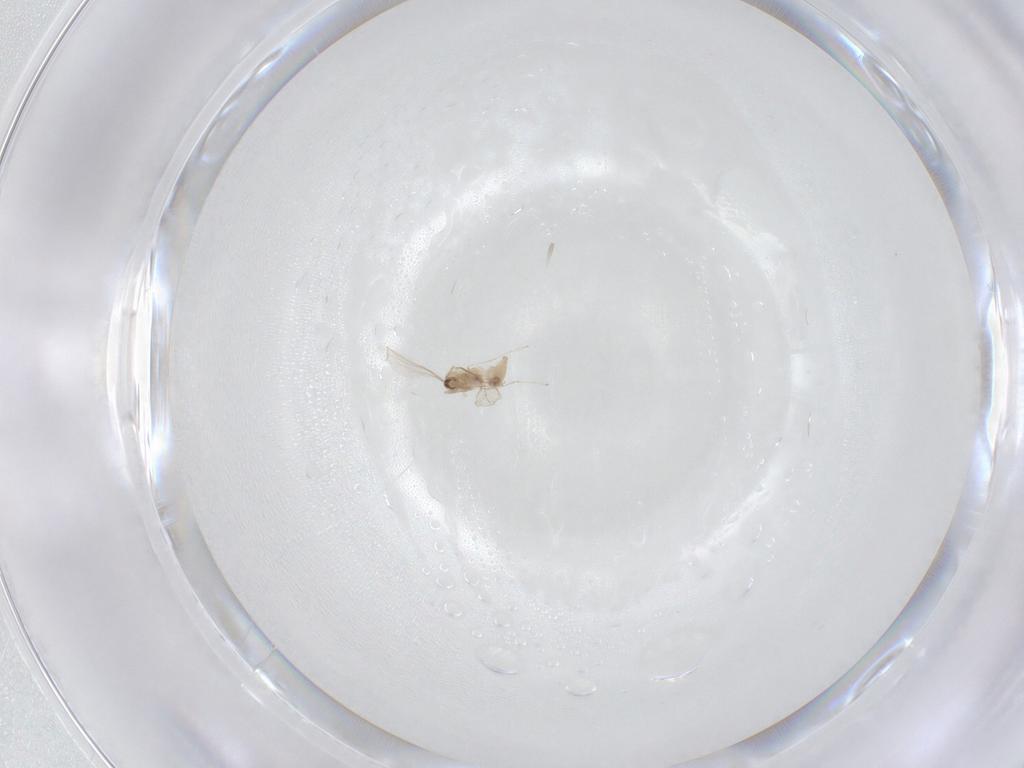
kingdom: Animalia
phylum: Arthropoda
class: Insecta
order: Diptera
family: Cecidomyiidae
